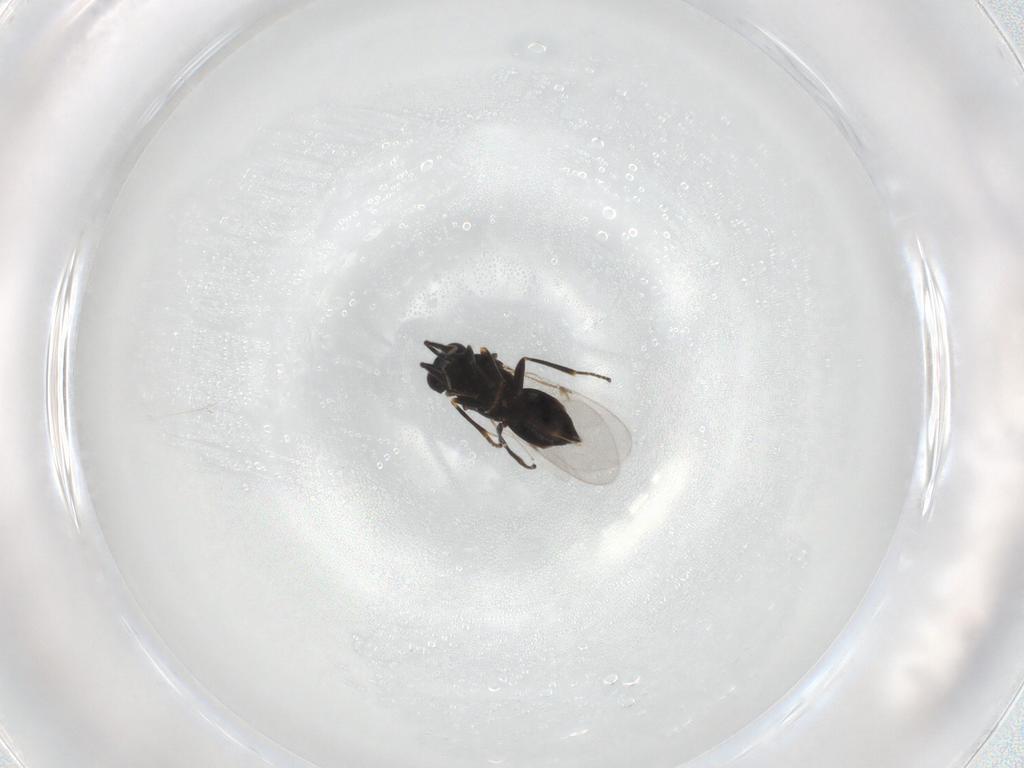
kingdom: Animalia
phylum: Arthropoda
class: Insecta
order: Hymenoptera
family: Encyrtidae
